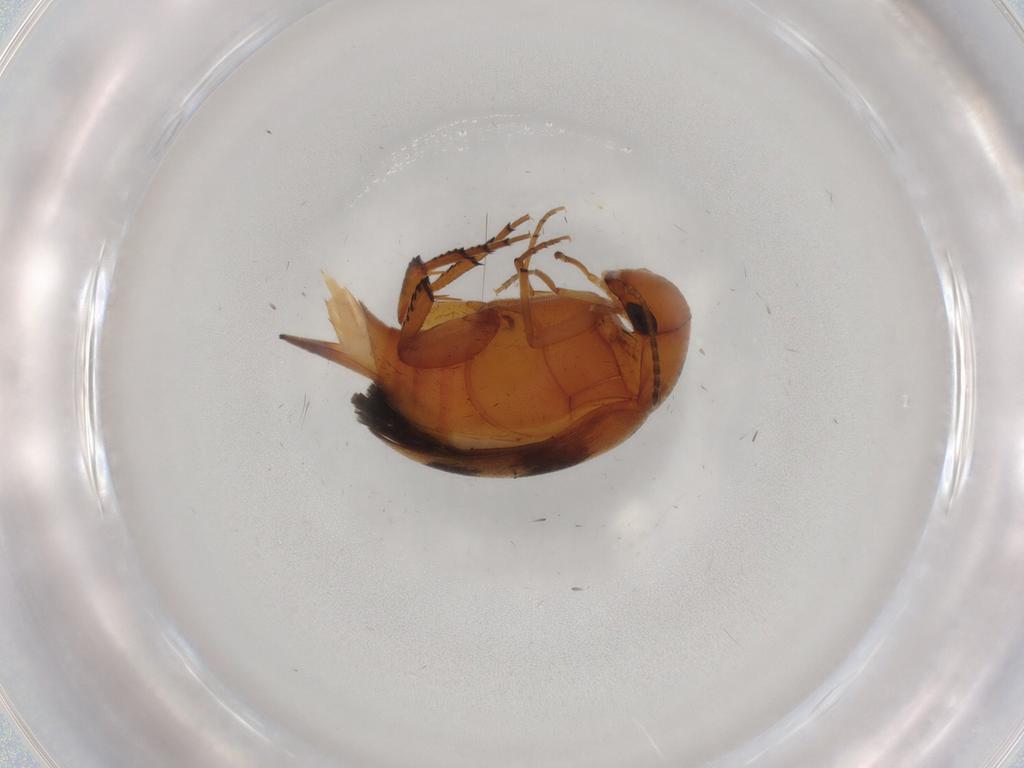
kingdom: Animalia
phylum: Arthropoda
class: Insecta
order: Coleoptera
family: Mordellidae
